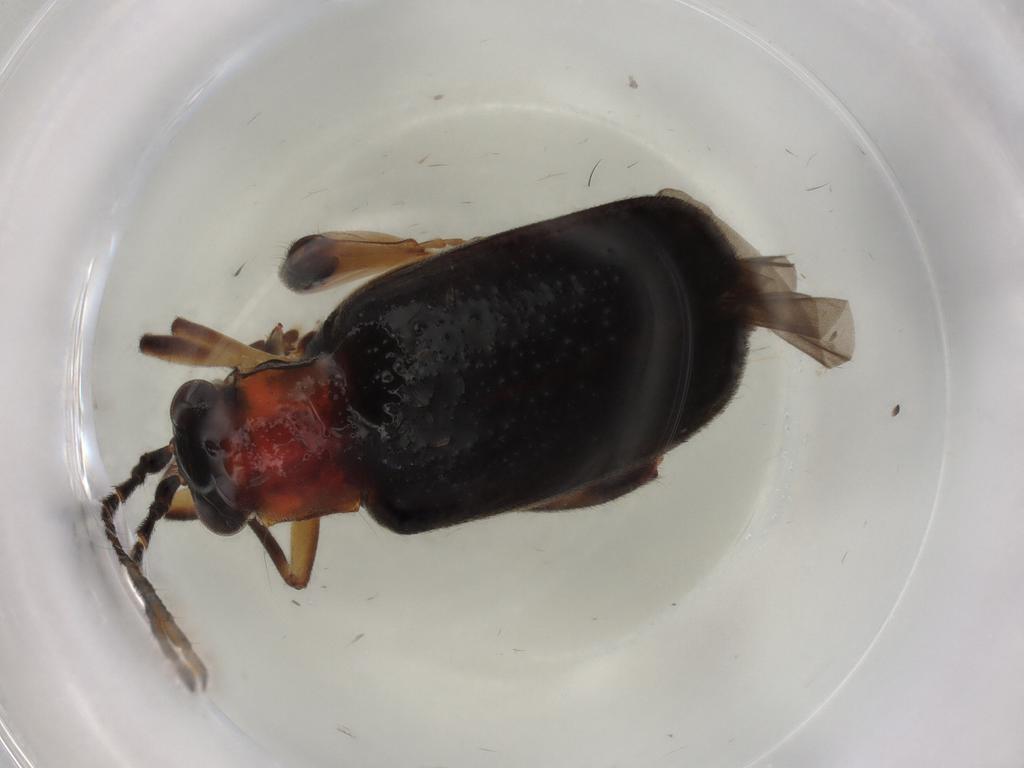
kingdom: Animalia
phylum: Arthropoda
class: Insecta
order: Coleoptera
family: Chrysomelidae
